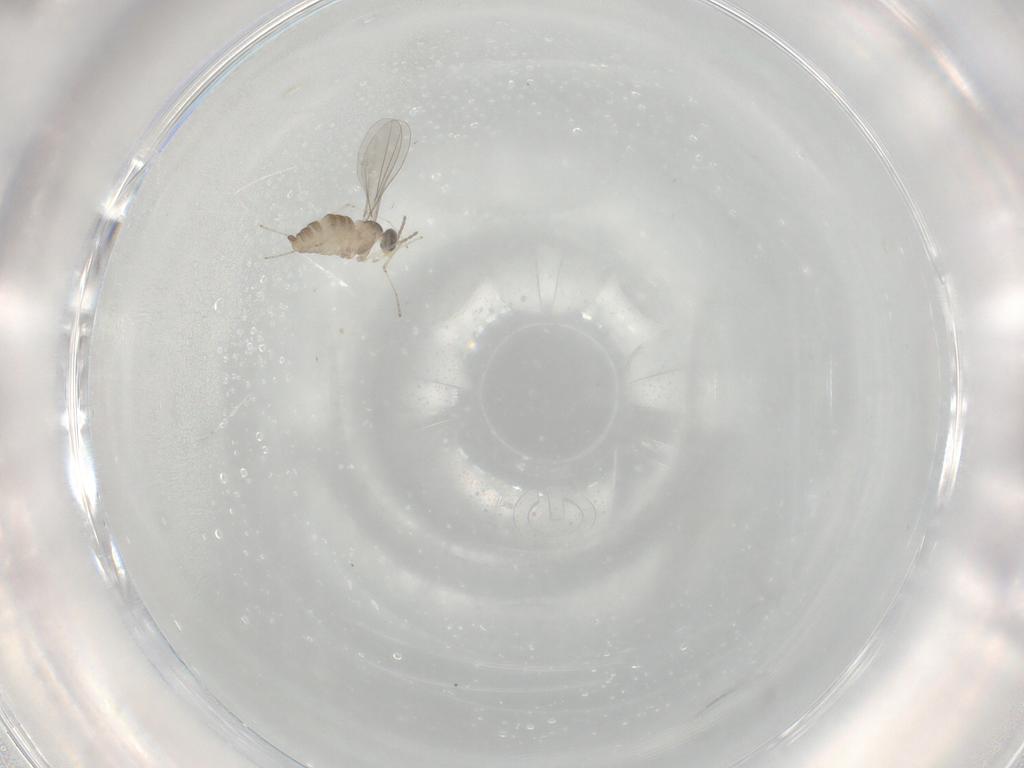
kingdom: Animalia
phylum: Arthropoda
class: Insecta
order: Diptera
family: Cecidomyiidae
